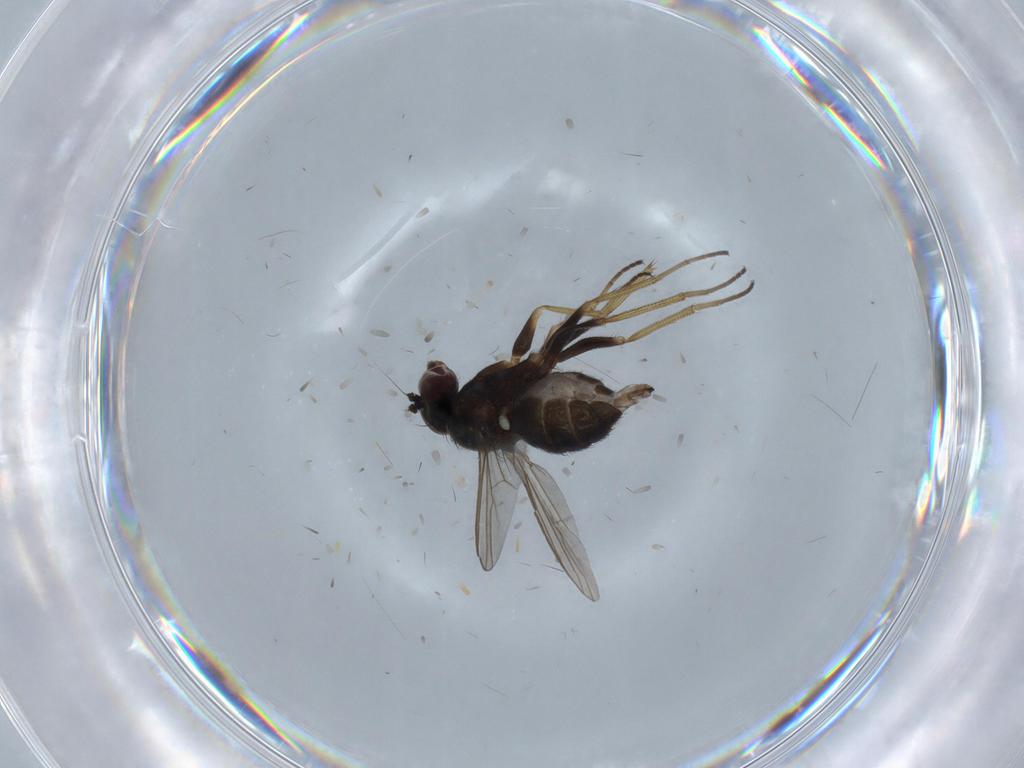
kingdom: Animalia
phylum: Arthropoda
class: Insecta
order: Diptera
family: Dolichopodidae
